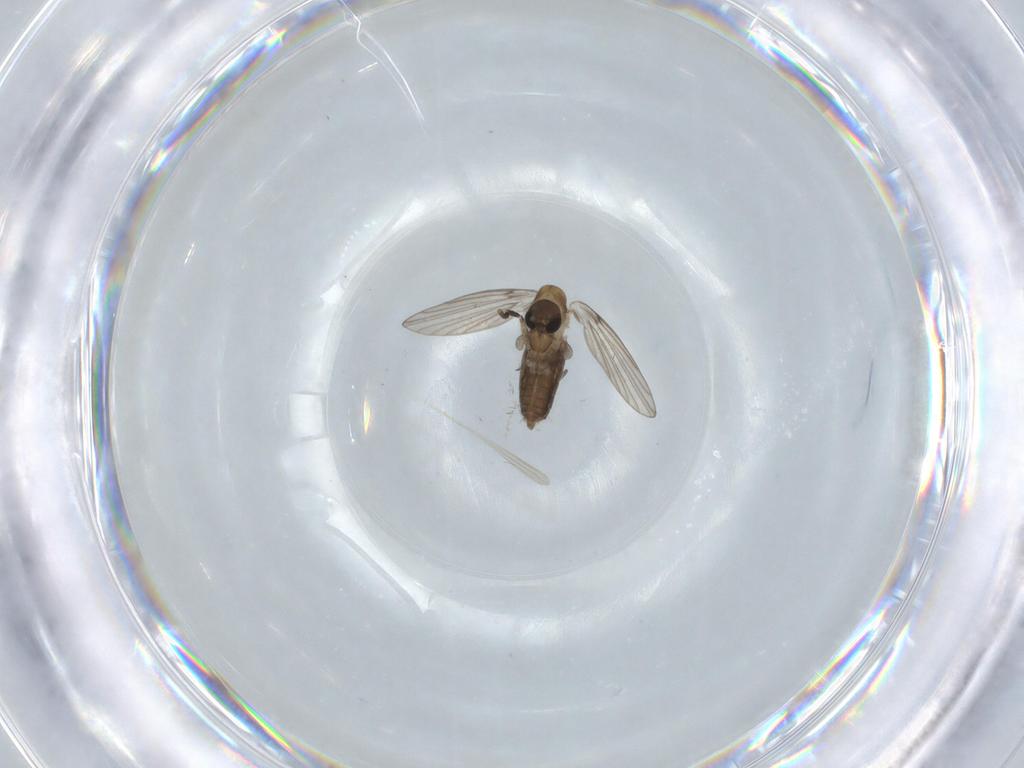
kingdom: Animalia
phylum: Arthropoda
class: Insecta
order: Diptera
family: Psychodidae
